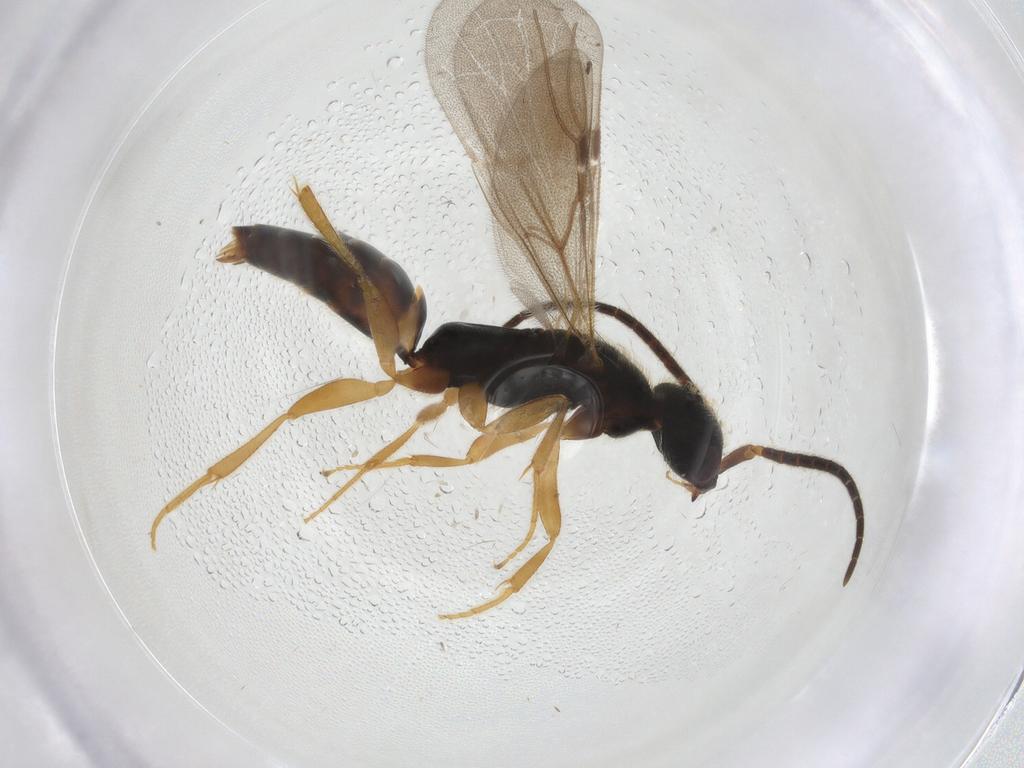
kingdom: Animalia
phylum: Arthropoda
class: Insecta
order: Hymenoptera
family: Bethylidae
